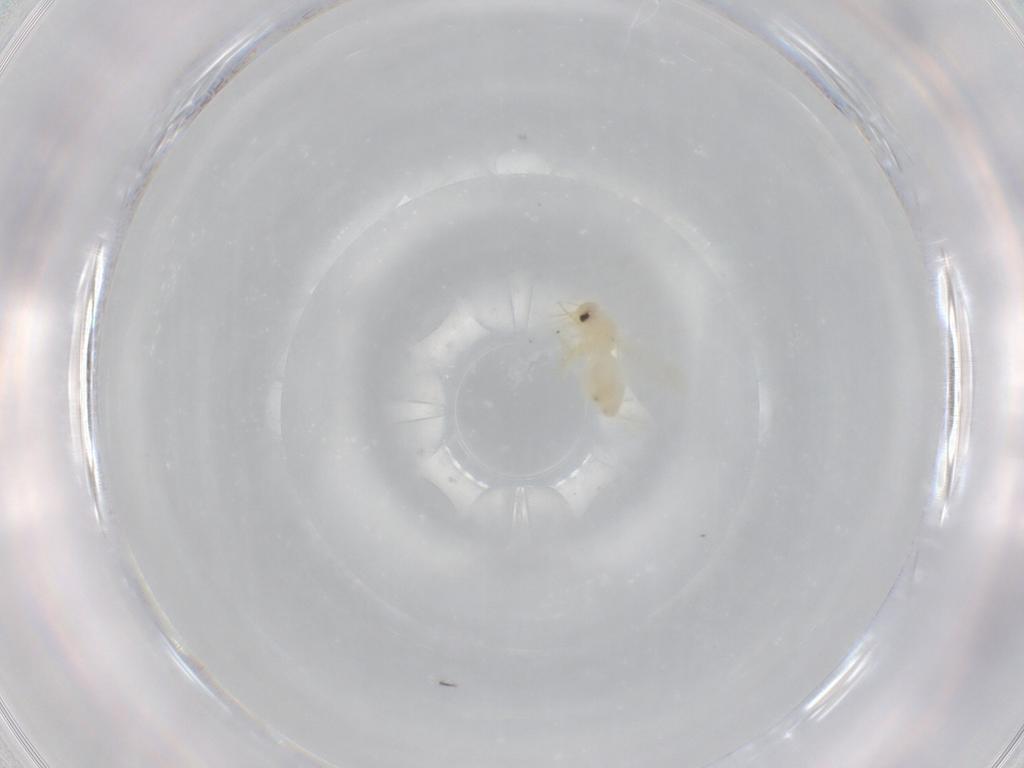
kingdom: Animalia
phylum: Arthropoda
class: Insecta
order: Hemiptera
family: Aleyrodidae
